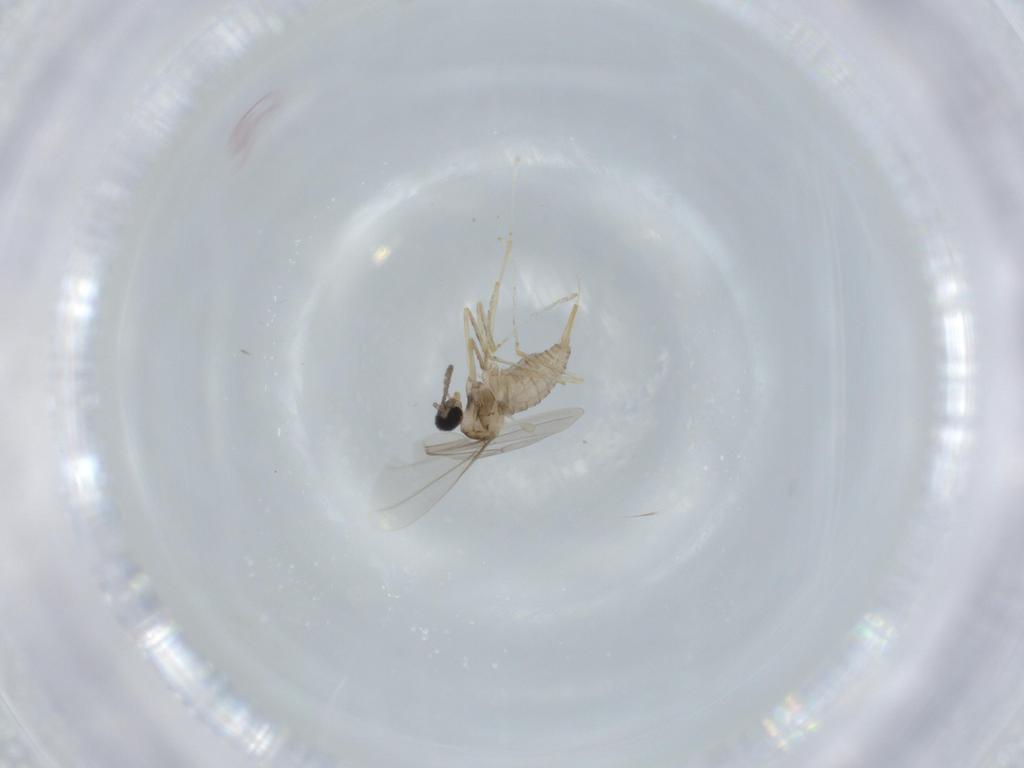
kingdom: Animalia
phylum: Arthropoda
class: Insecta
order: Diptera
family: Cecidomyiidae
